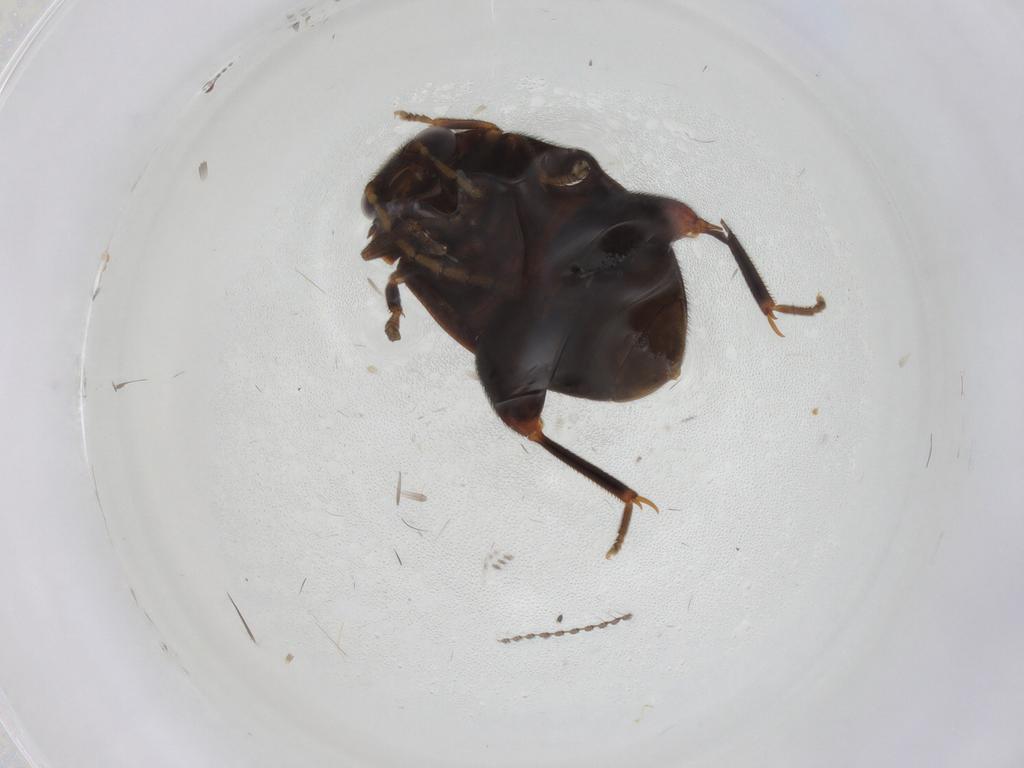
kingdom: Animalia
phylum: Arthropoda
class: Insecta
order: Coleoptera
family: Scirtidae
